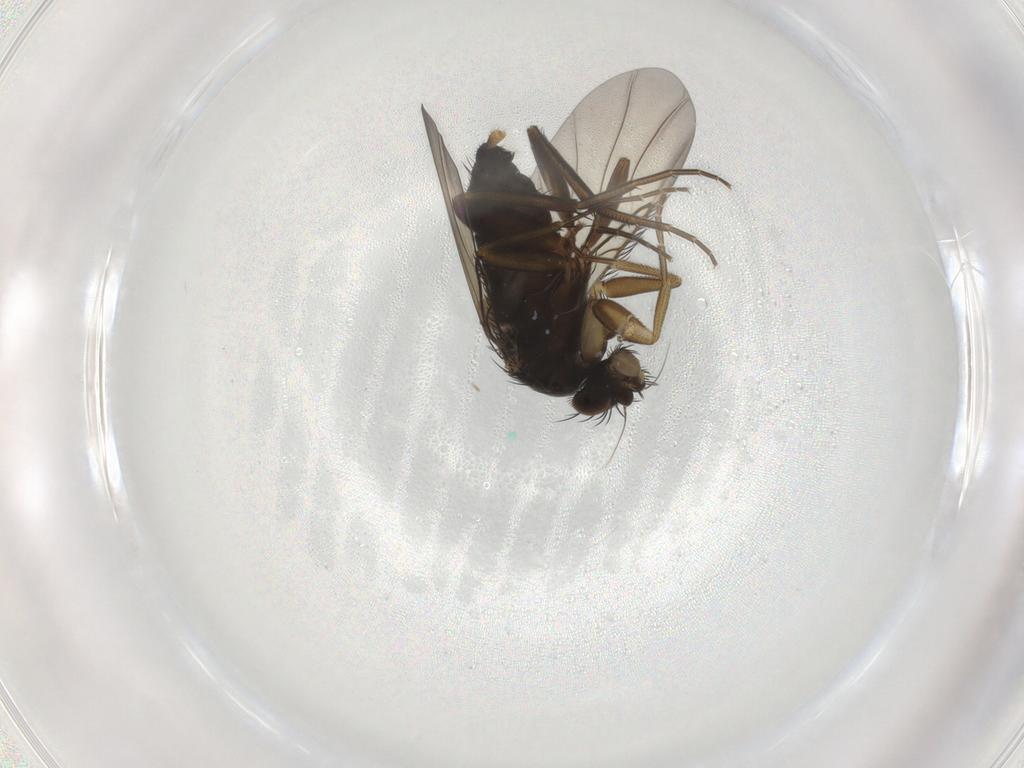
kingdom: Animalia
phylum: Arthropoda
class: Insecta
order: Diptera
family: Phoridae
